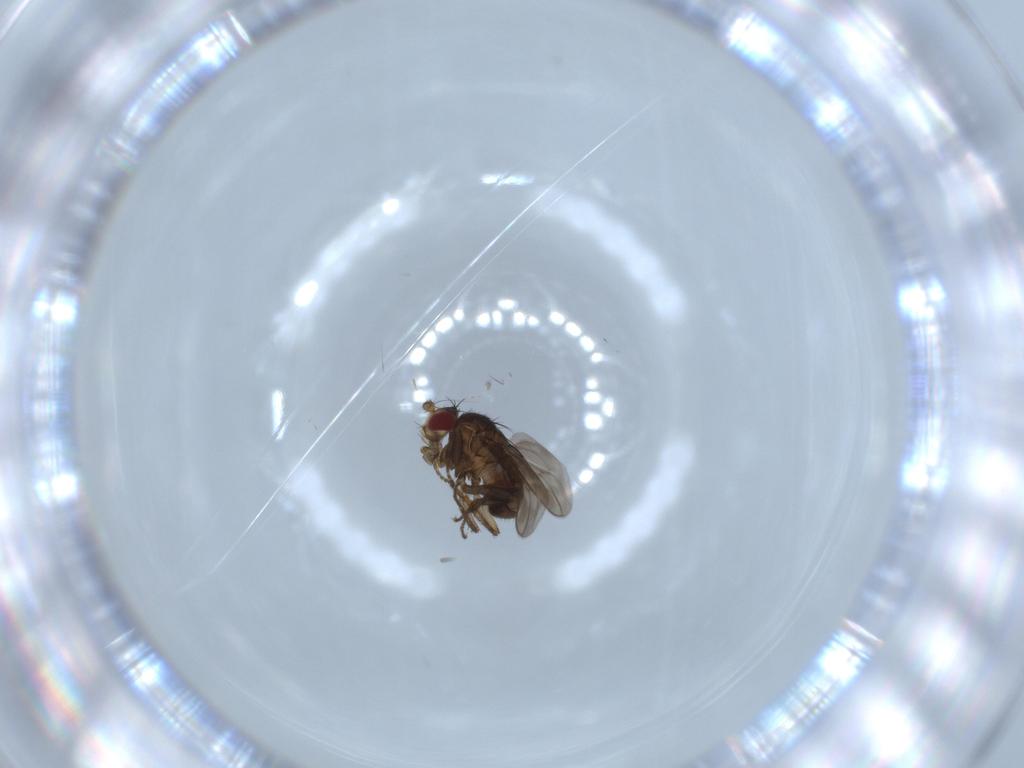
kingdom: Animalia
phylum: Arthropoda
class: Insecta
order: Diptera
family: Sphaeroceridae
